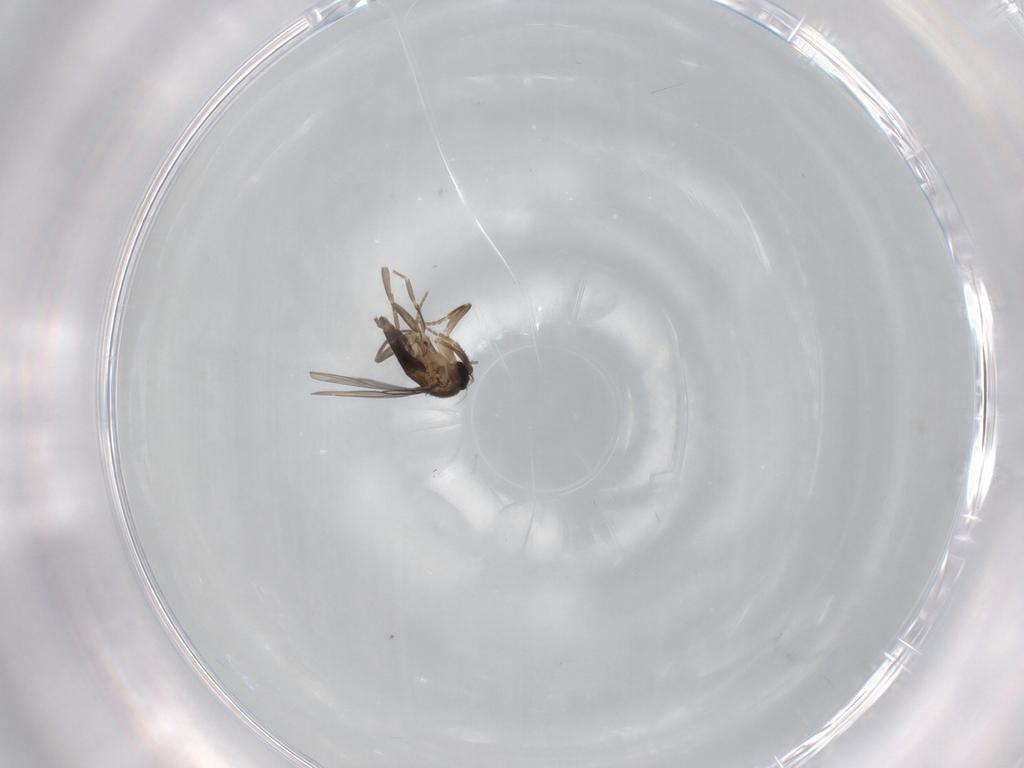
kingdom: Animalia
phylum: Arthropoda
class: Insecta
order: Diptera
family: Phoridae
